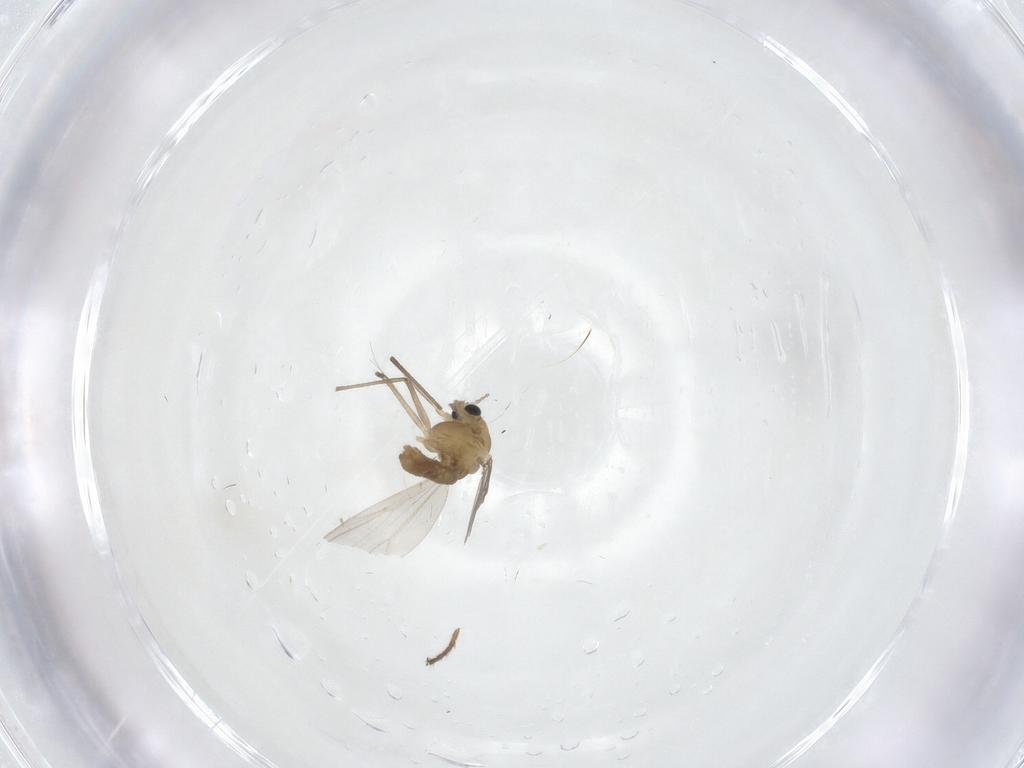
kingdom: Animalia
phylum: Arthropoda
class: Insecta
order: Diptera
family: Chironomidae
